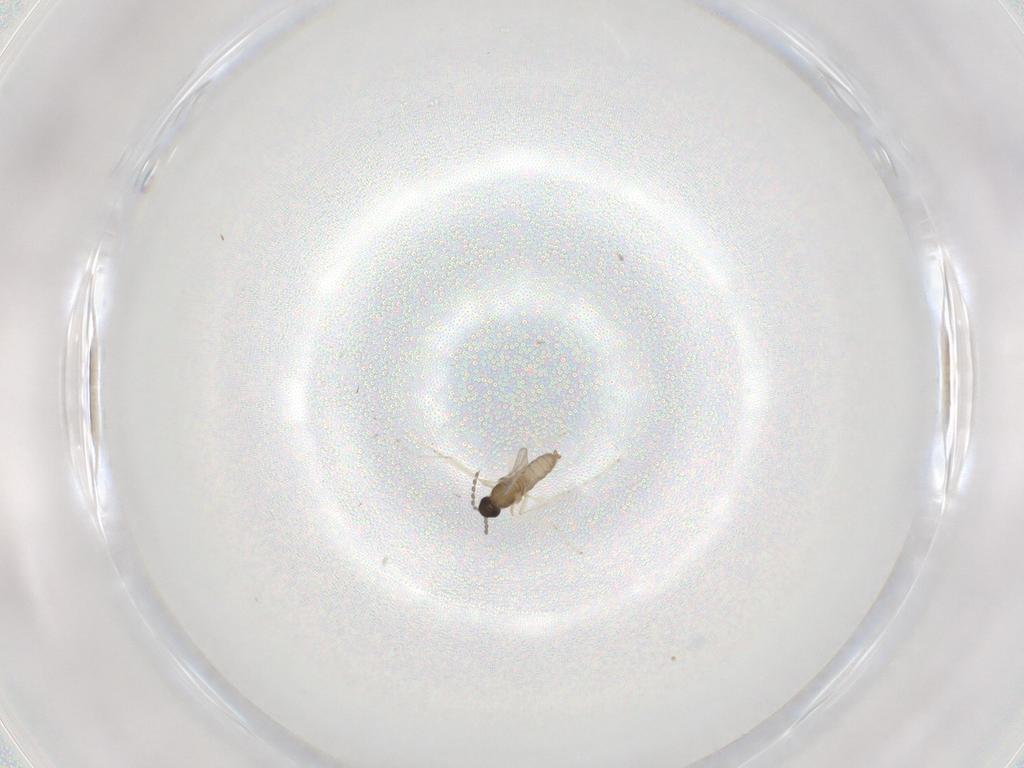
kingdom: Animalia
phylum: Arthropoda
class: Insecta
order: Diptera
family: Cecidomyiidae
